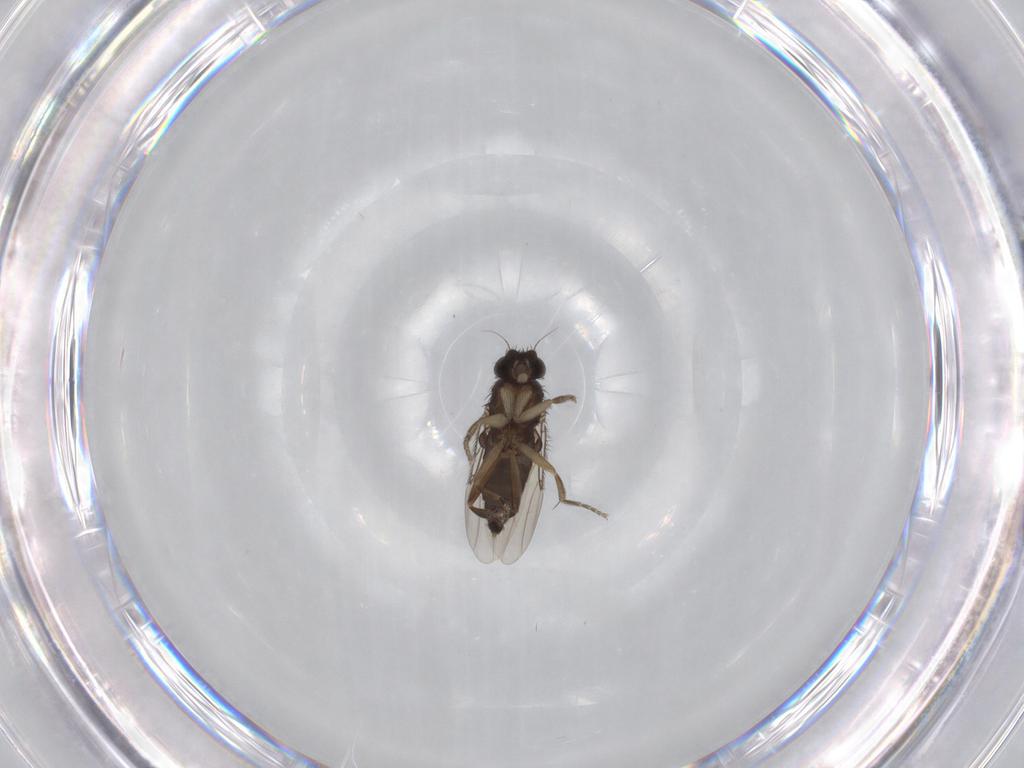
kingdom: Animalia
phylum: Arthropoda
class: Insecta
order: Diptera
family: Phoridae
